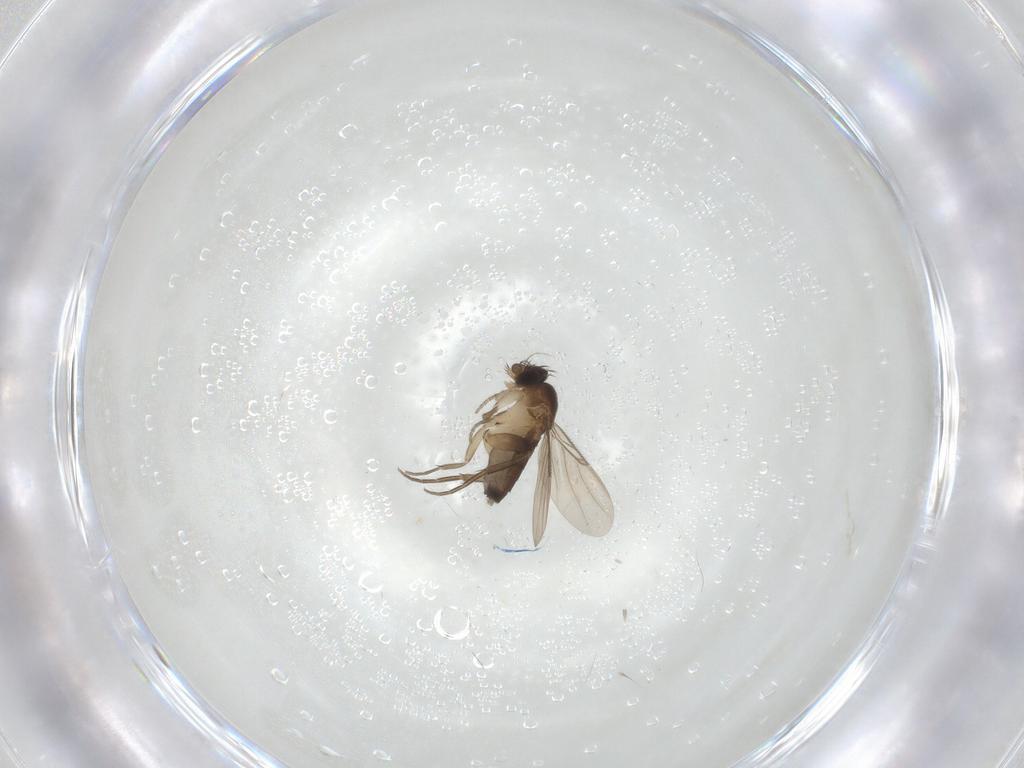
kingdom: Animalia
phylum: Arthropoda
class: Insecta
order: Diptera
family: Phoridae
